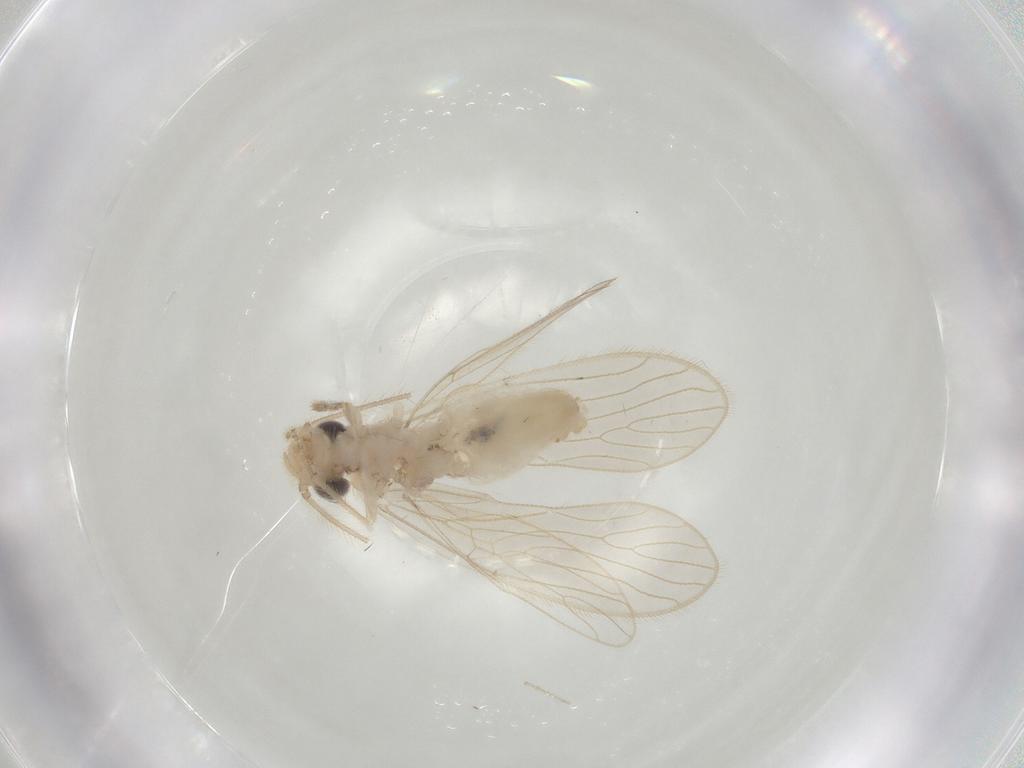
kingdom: Animalia
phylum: Arthropoda
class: Insecta
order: Psocodea
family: Cladiopsocidae
